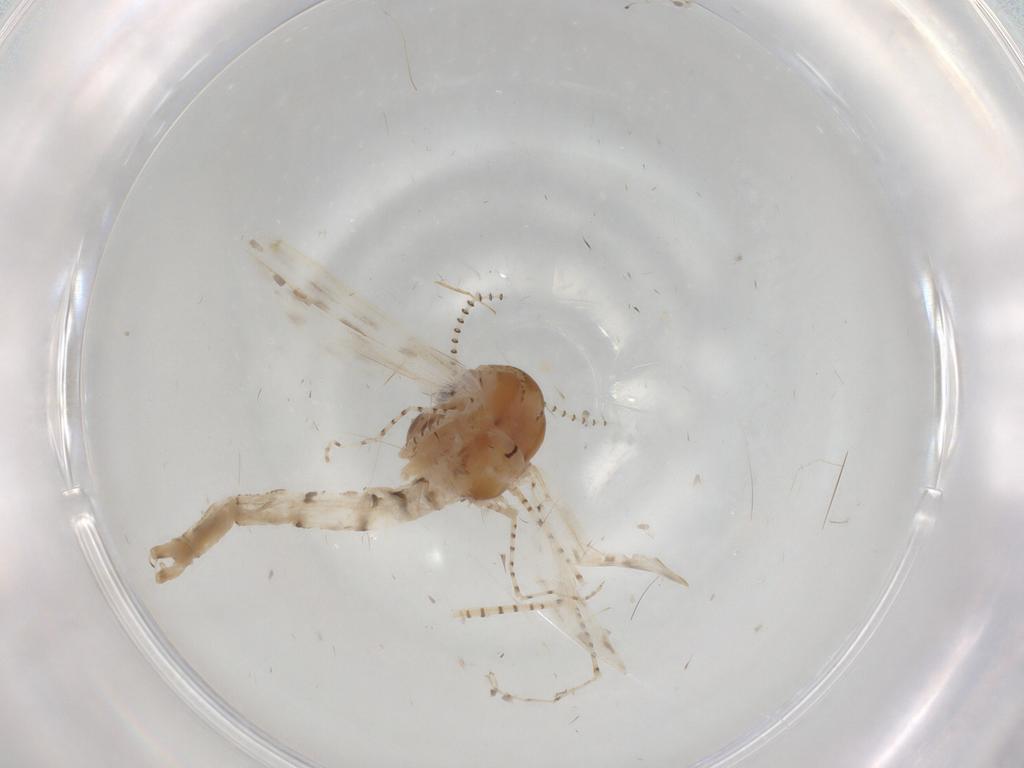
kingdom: Animalia
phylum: Arthropoda
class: Insecta
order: Diptera
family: Chaoboridae
